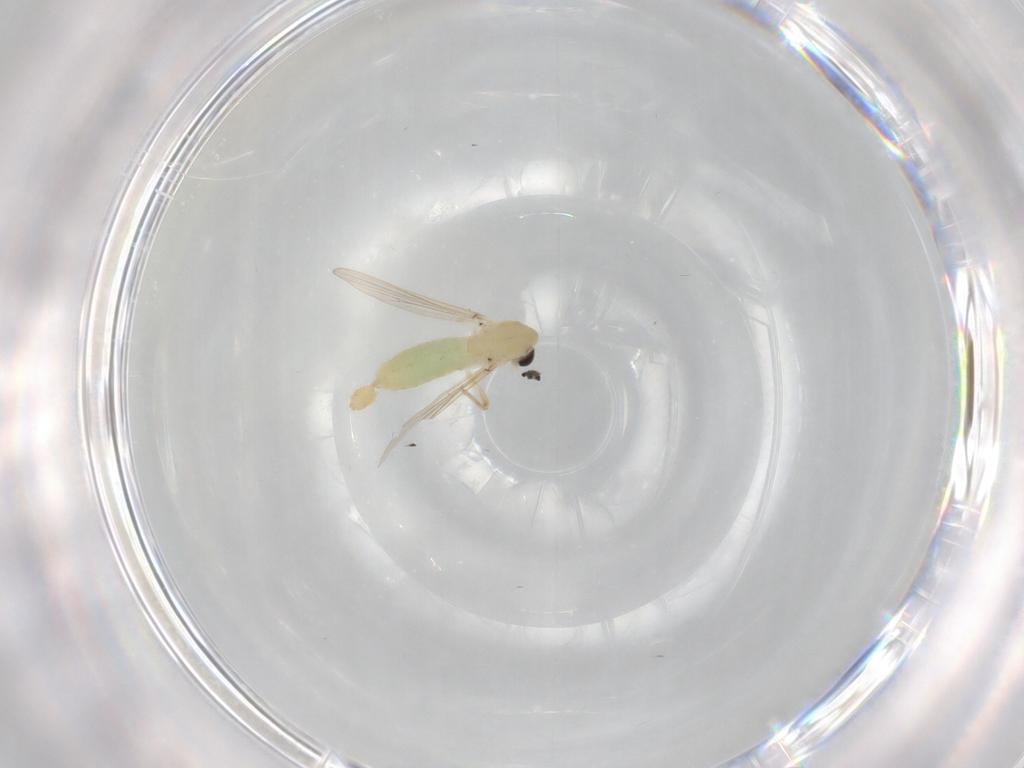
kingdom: Animalia
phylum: Arthropoda
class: Insecta
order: Diptera
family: Chironomidae
